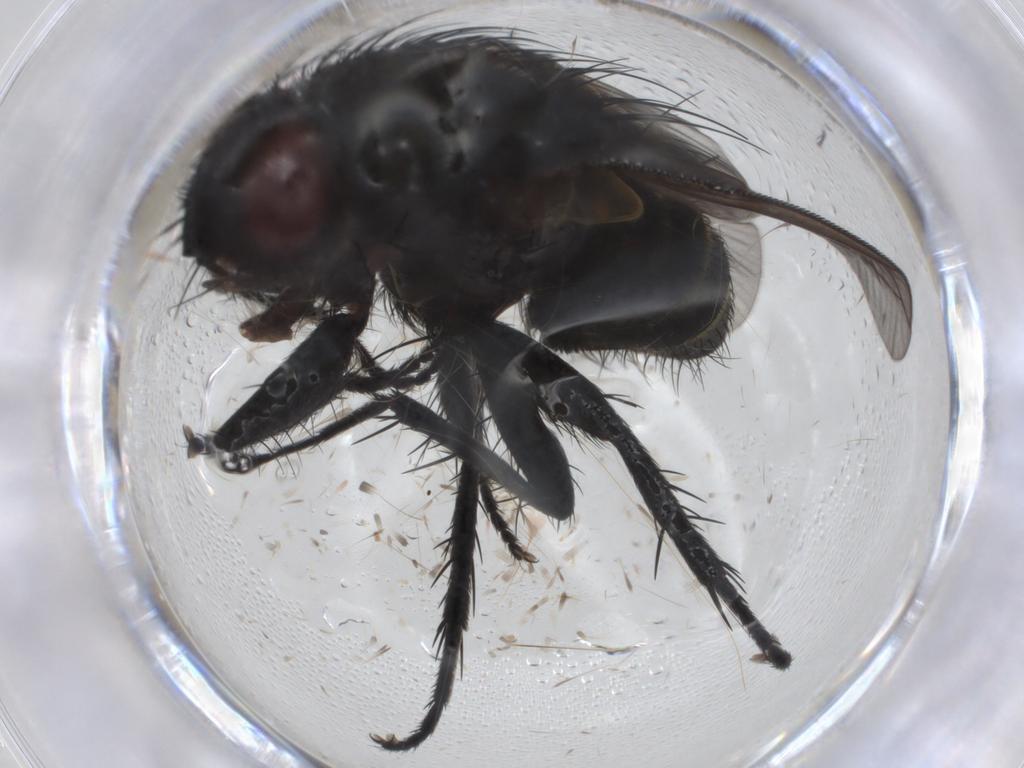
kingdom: Animalia
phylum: Arthropoda
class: Insecta
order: Diptera
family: Tachinidae
